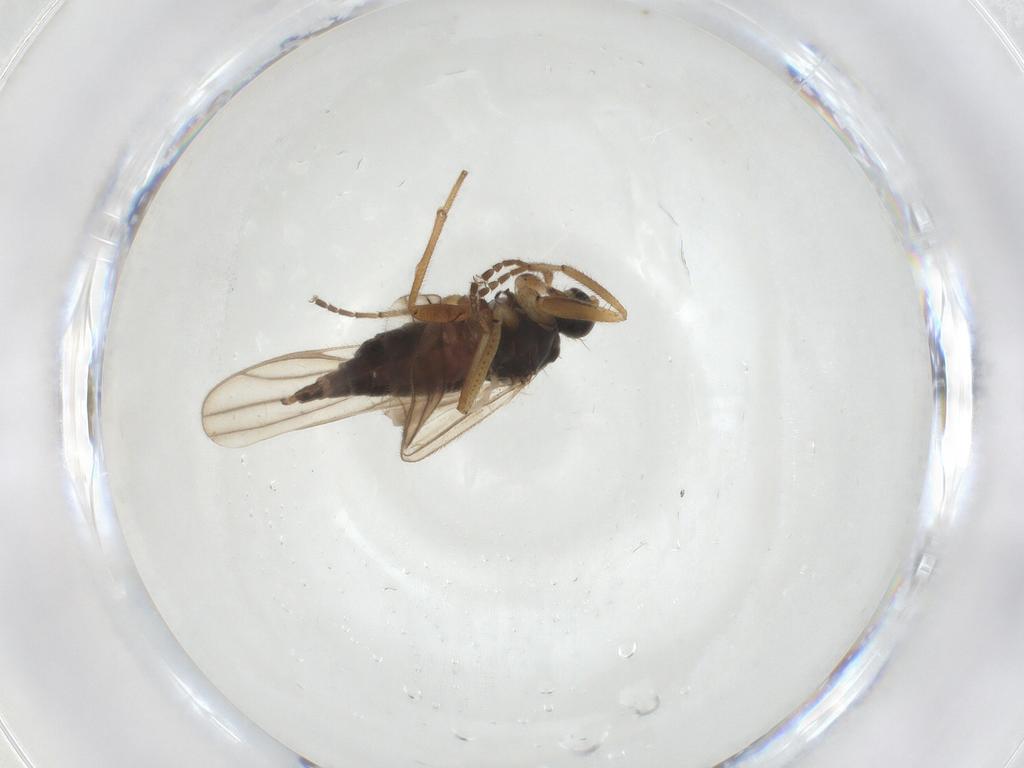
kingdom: Animalia
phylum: Arthropoda
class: Insecta
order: Diptera
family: Hybotidae
